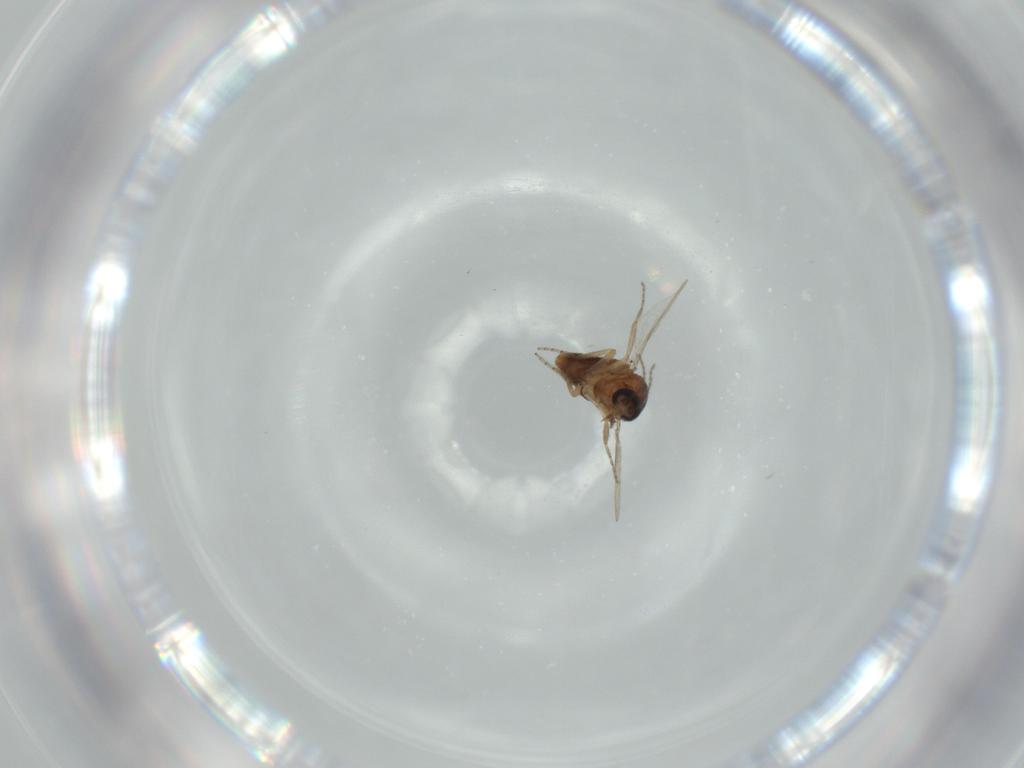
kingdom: Animalia
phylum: Arthropoda
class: Insecta
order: Diptera
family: Ceratopogonidae
